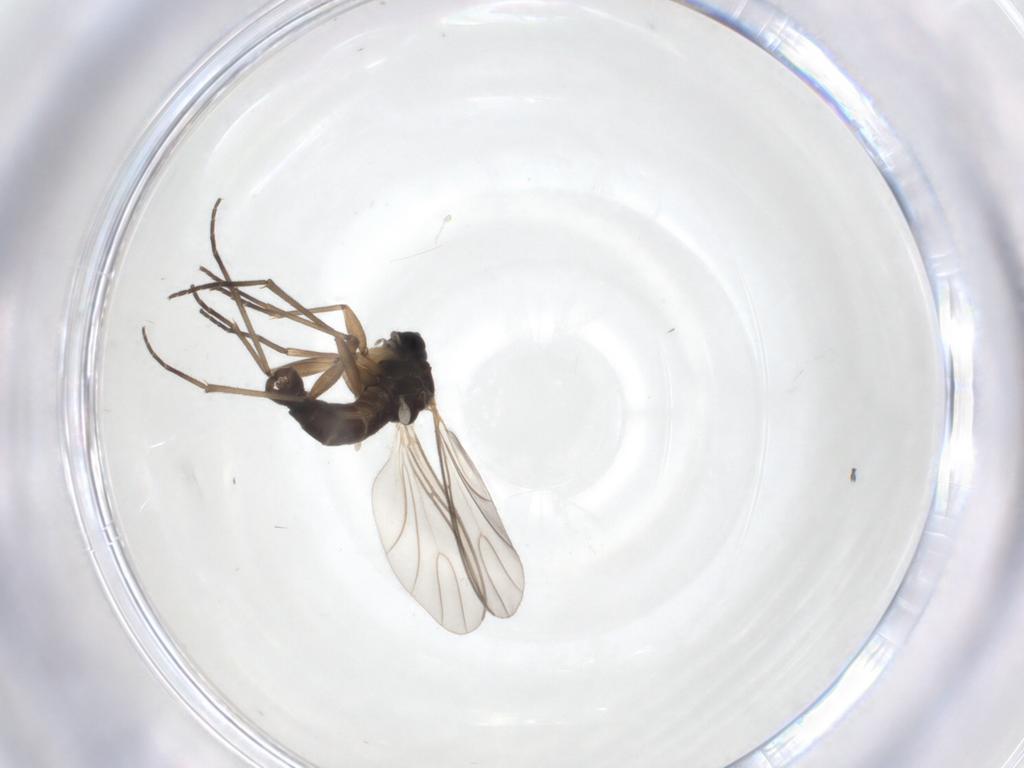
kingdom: Animalia
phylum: Arthropoda
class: Insecta
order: Diptera
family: Sciaridae
